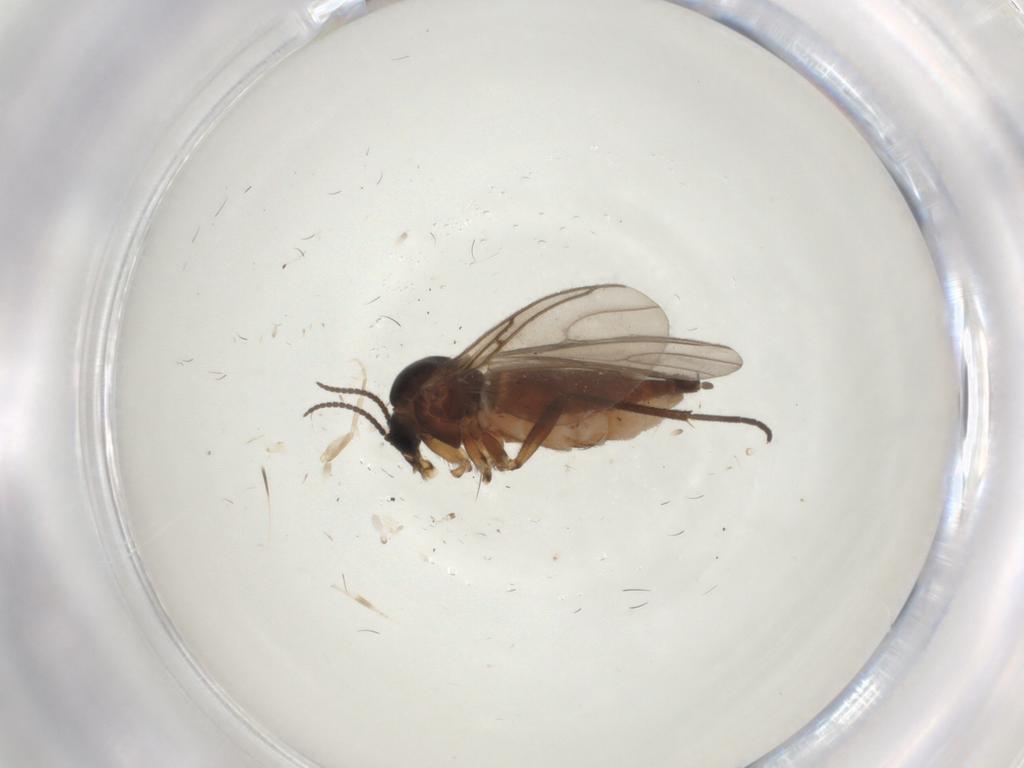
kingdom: Animalia
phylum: Arthropoda
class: Insecta
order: Diptera
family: Sciaridae
